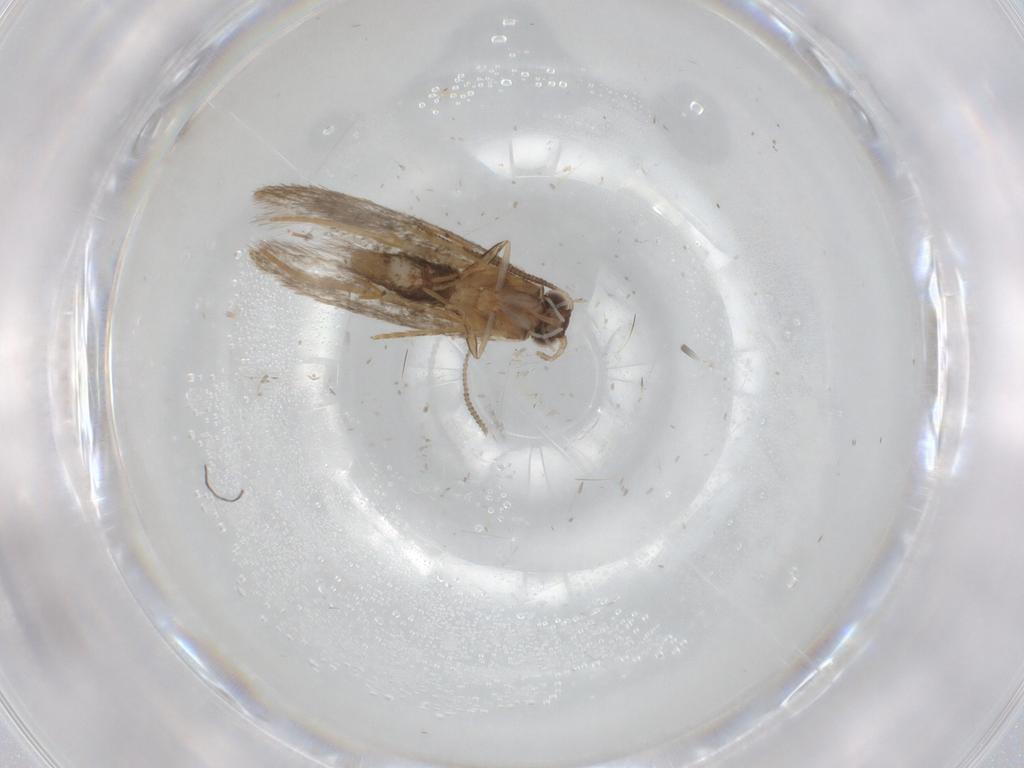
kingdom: Animalia
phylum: Arthropoda
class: Insecta
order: Lepidoptera
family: Tineidae
